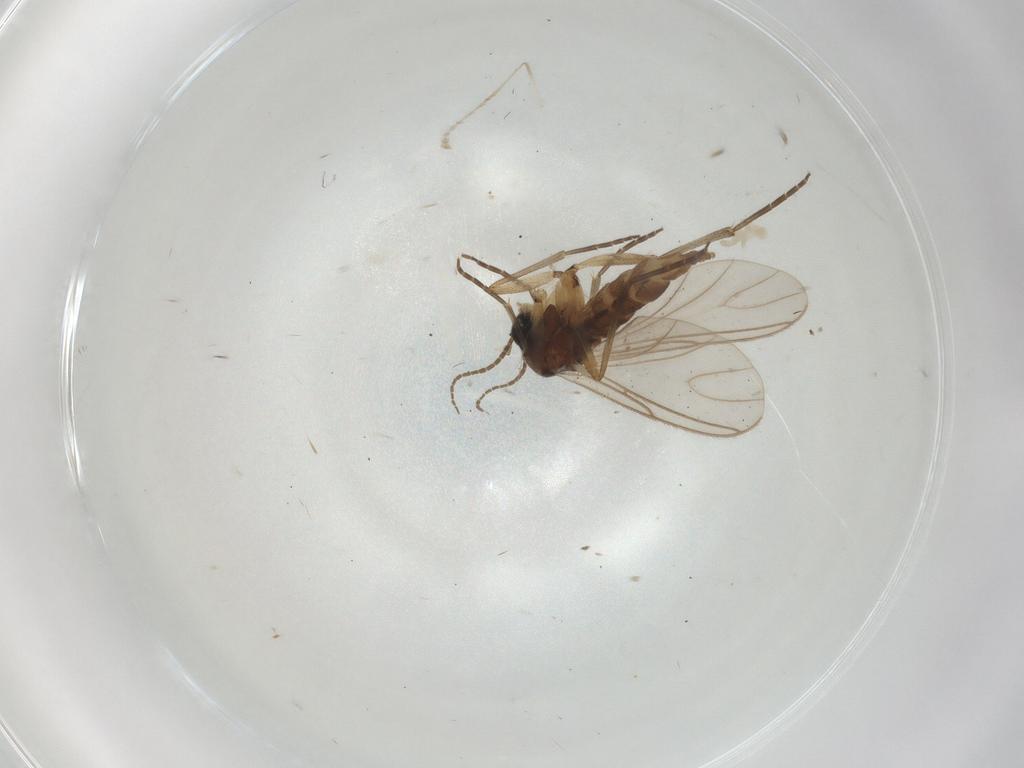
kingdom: Animalia
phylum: Arthropoda
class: Insecta
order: Diptera
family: Sciaridae
